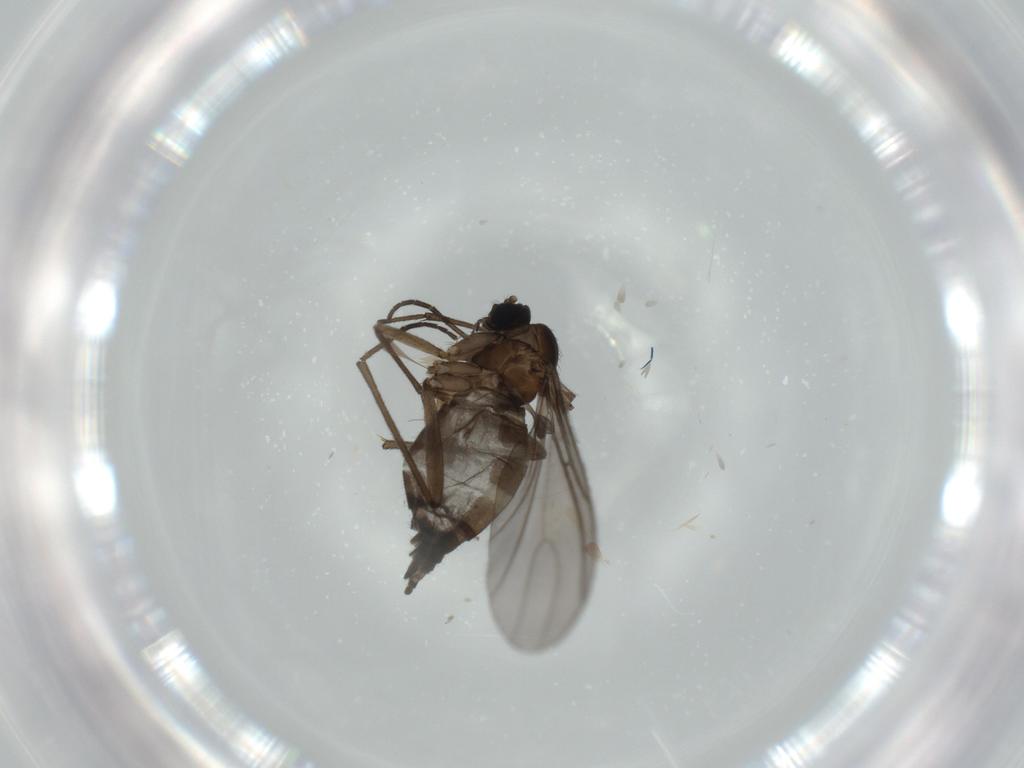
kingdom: Animalia
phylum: Arthropoda
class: Insecta
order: Diptera
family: Sciaridae
